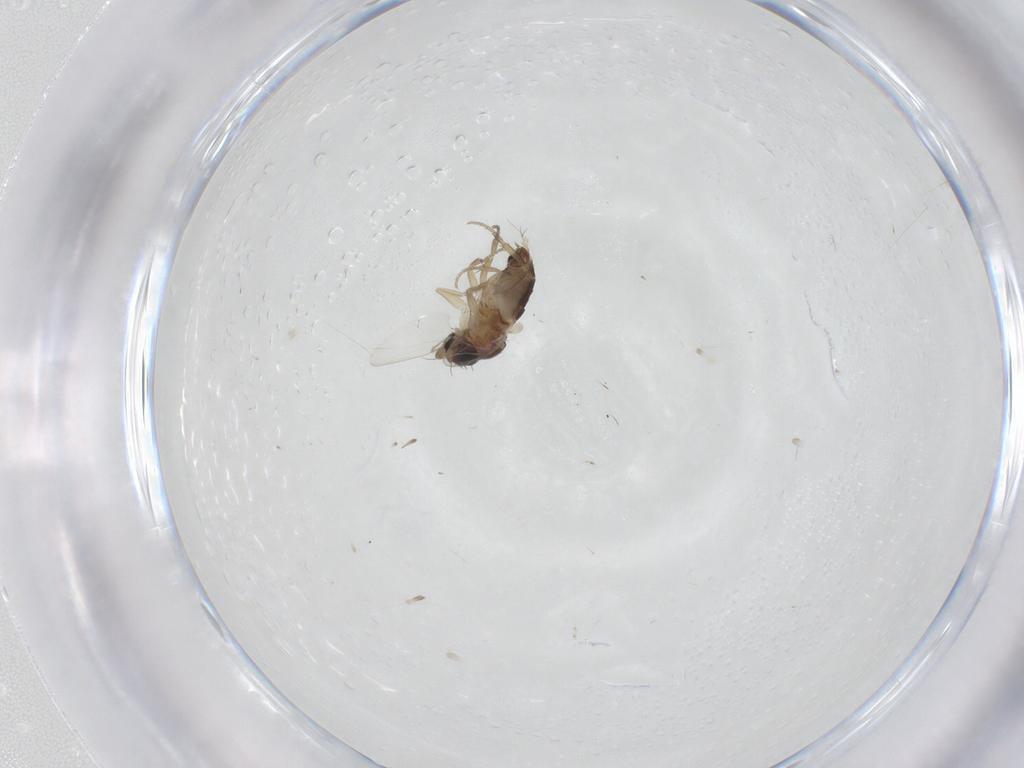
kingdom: Animalia
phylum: Arthropoda
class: Insecta
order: Diptera
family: Phoridae
